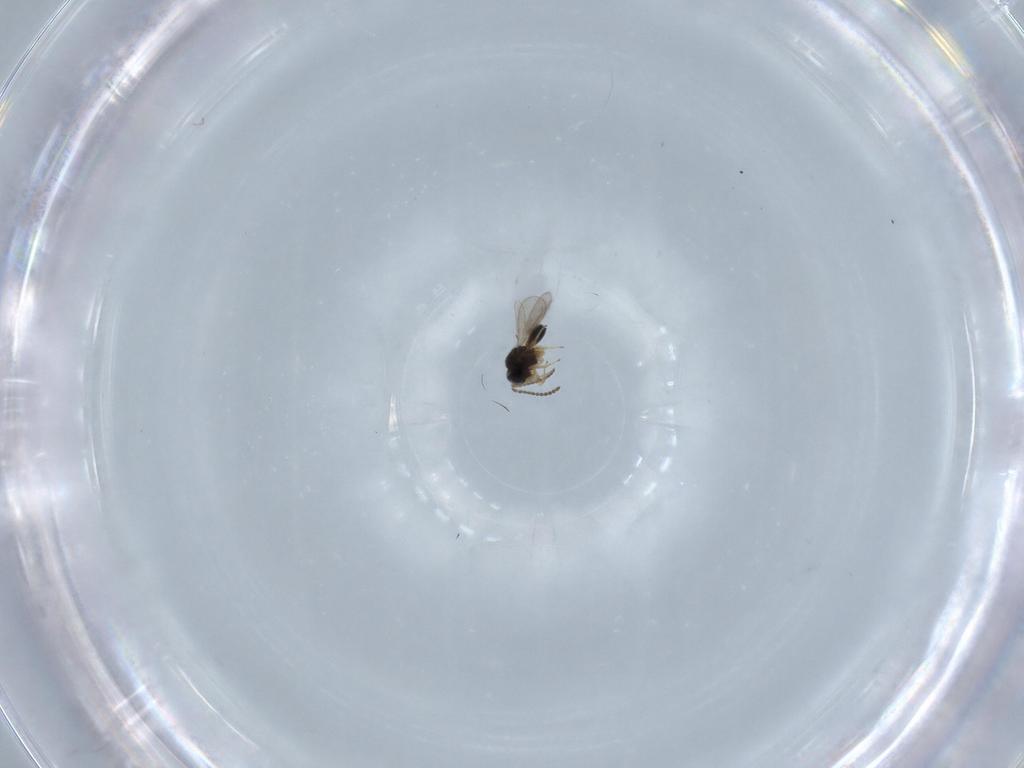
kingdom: Animalia
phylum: Arthropoda
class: Insecta
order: Hymenoptera
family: Scelionidae
